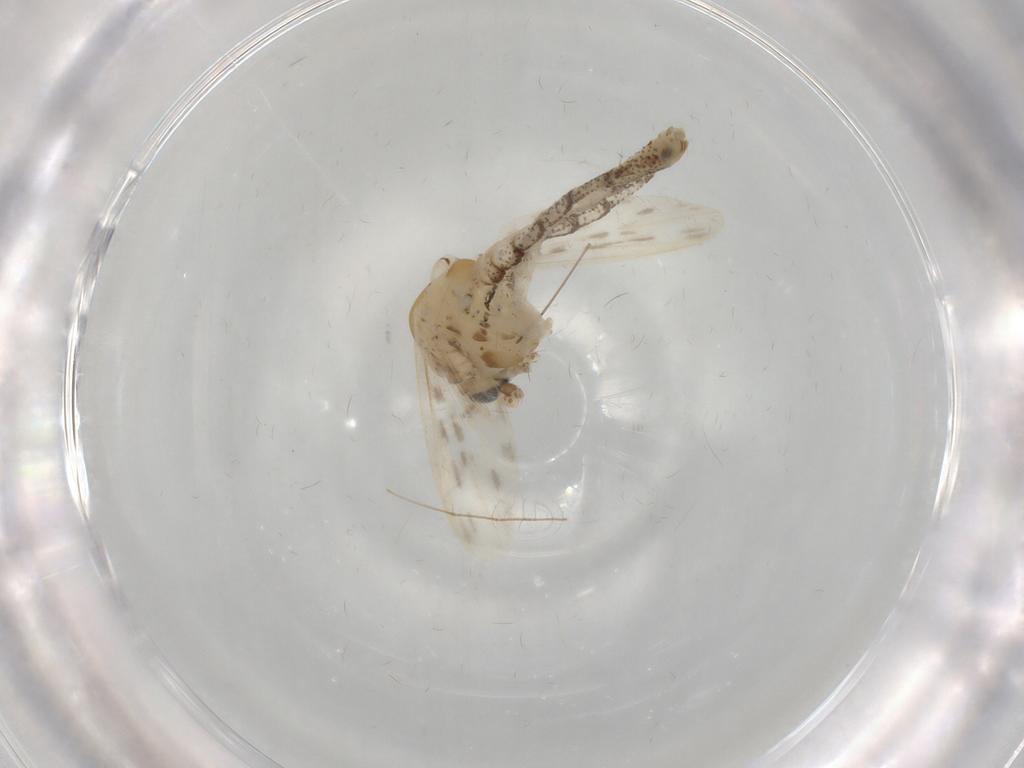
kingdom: Animalia
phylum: Arthropoda
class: Insecta
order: Diptera
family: Chaoboridae
